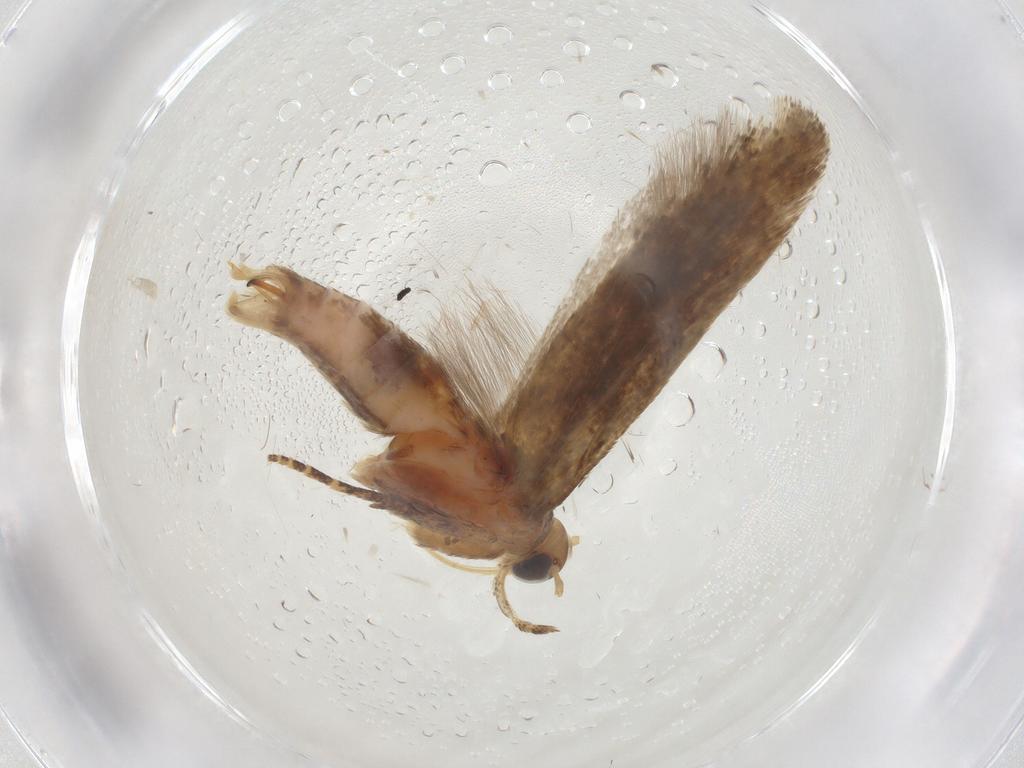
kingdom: Animalia
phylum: Arthropoda
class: Insecta
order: Lepidoptera
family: Gelechiidae
